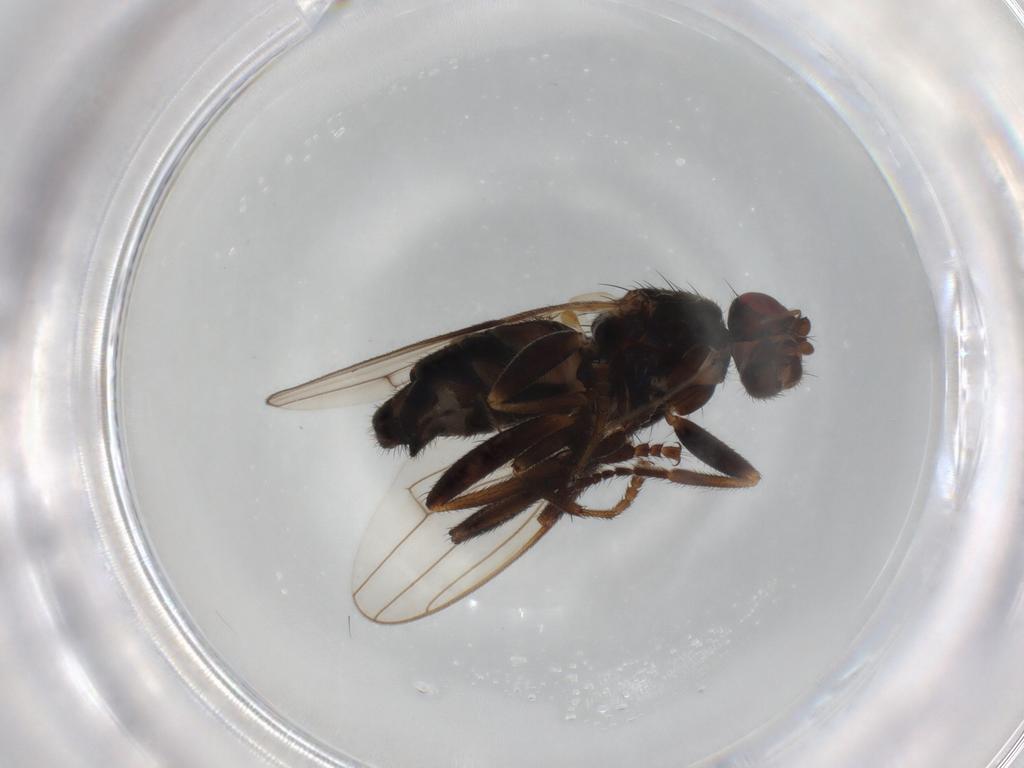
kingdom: Animalia
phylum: Arthropoda
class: Insecta
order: Diptera
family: Sphaeroceridae
